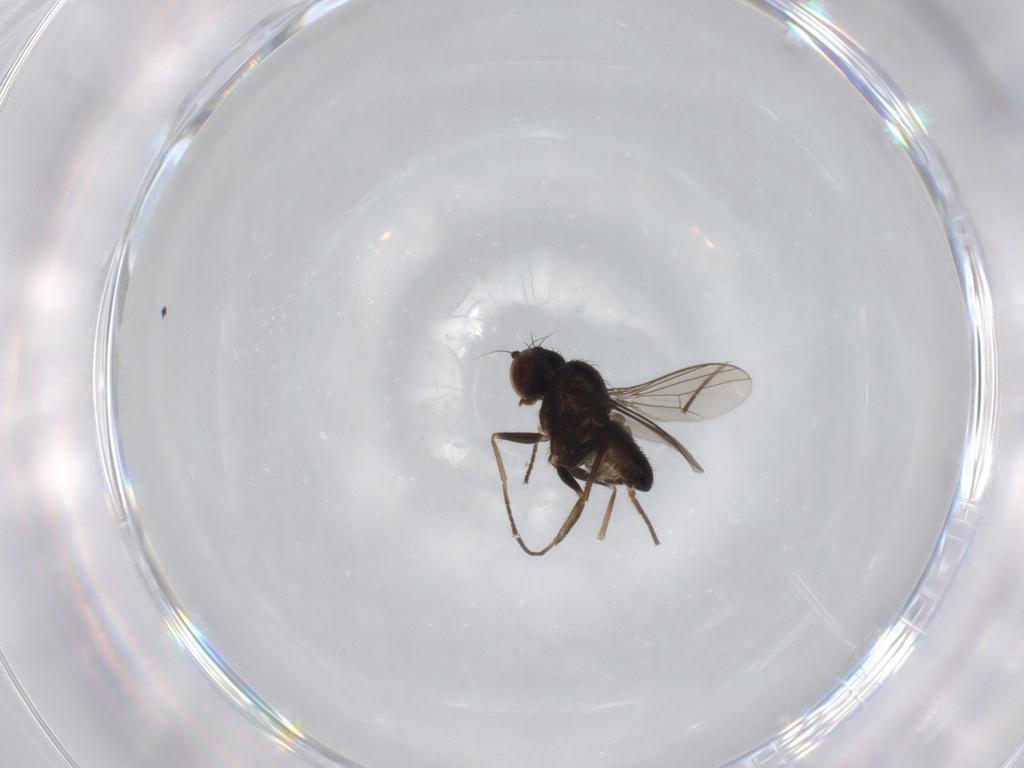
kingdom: Animalia
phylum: Arthropoda
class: Insecta
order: Diptera
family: Dolichopodidae
